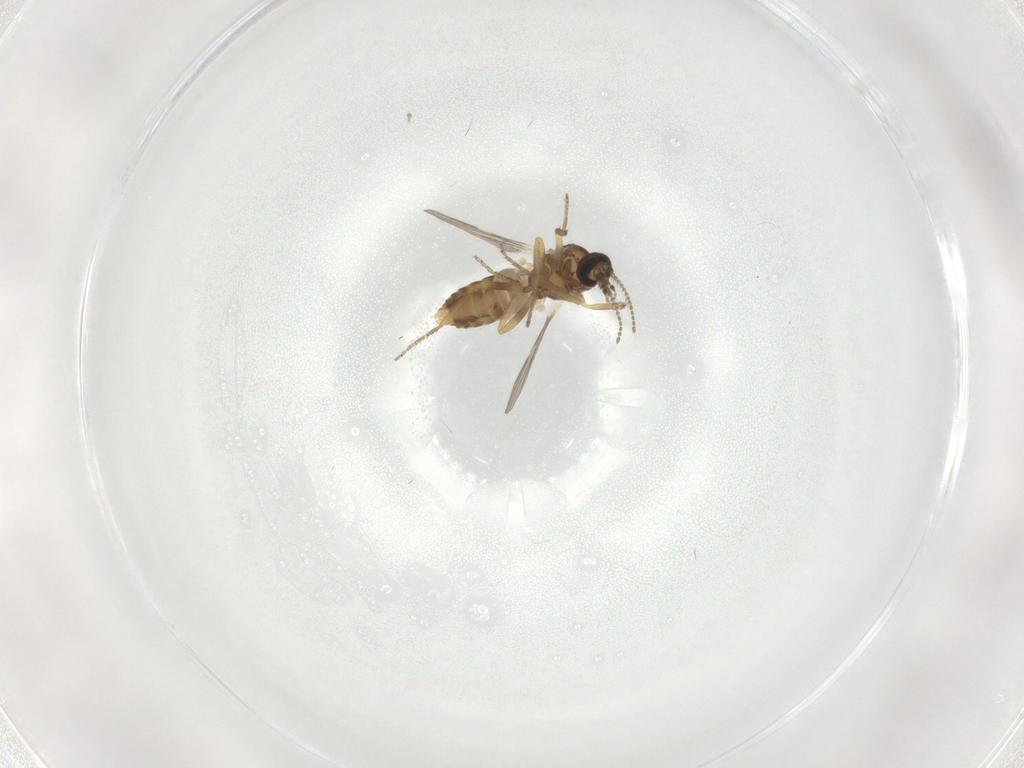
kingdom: Animalia
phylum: Arthropoda
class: Insecta
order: Diptera
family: Psychodidae
